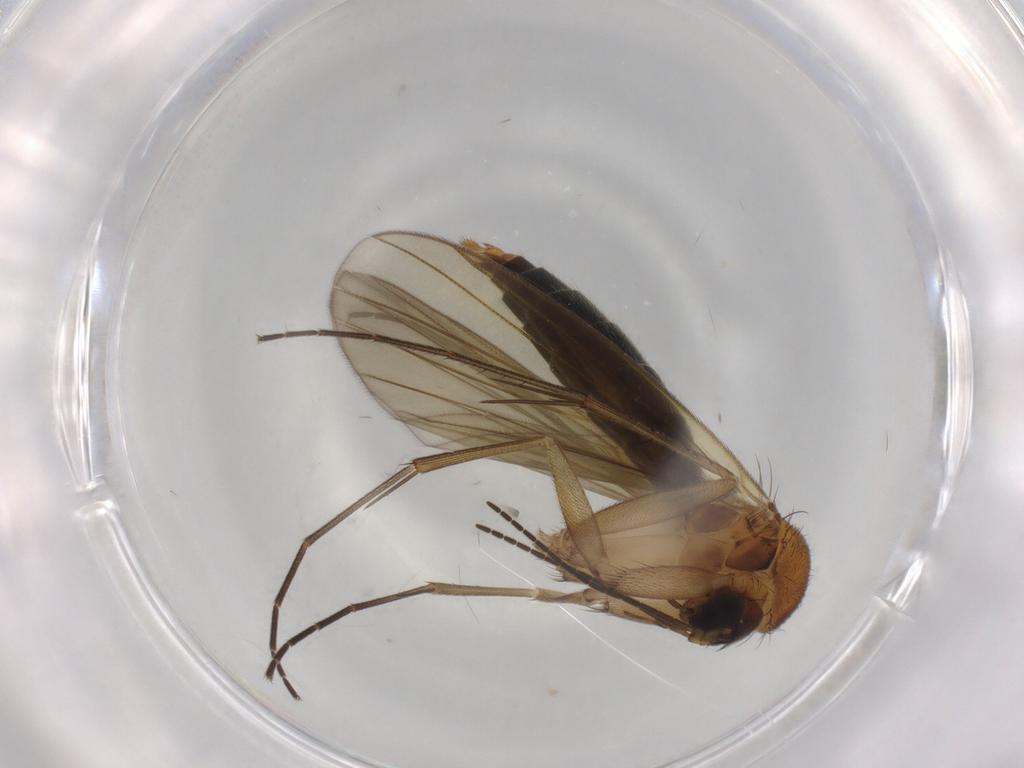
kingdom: Animalia
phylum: Arthropoda
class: Insecta
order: Diptera
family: Mycetophilidae
